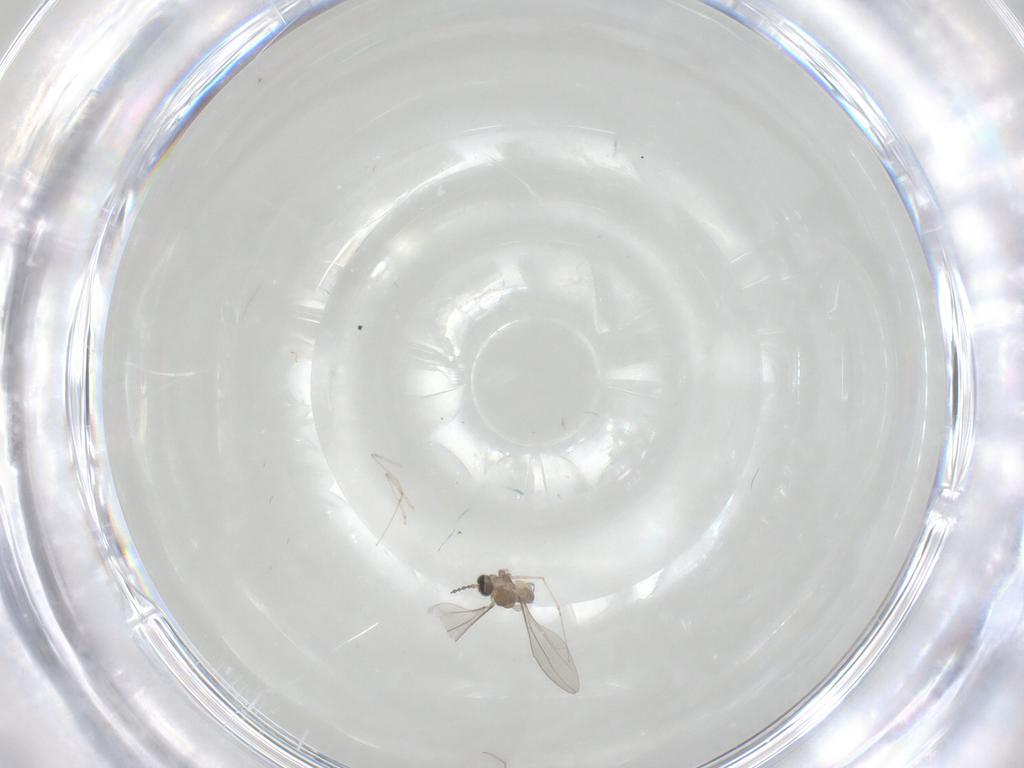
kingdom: Animalia
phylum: Arthropoda
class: Insecta
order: Diptera
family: Cecidomyiidae
